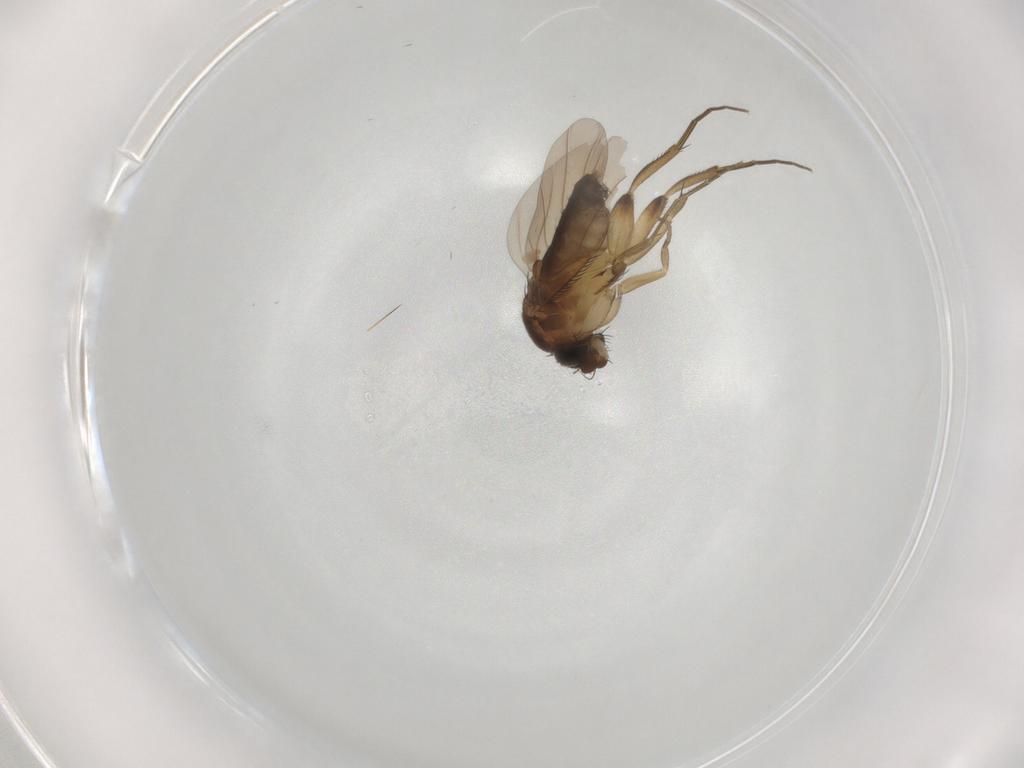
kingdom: Animalia
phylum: Arthropoda
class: Insecta
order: Diptera
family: Phoridae
